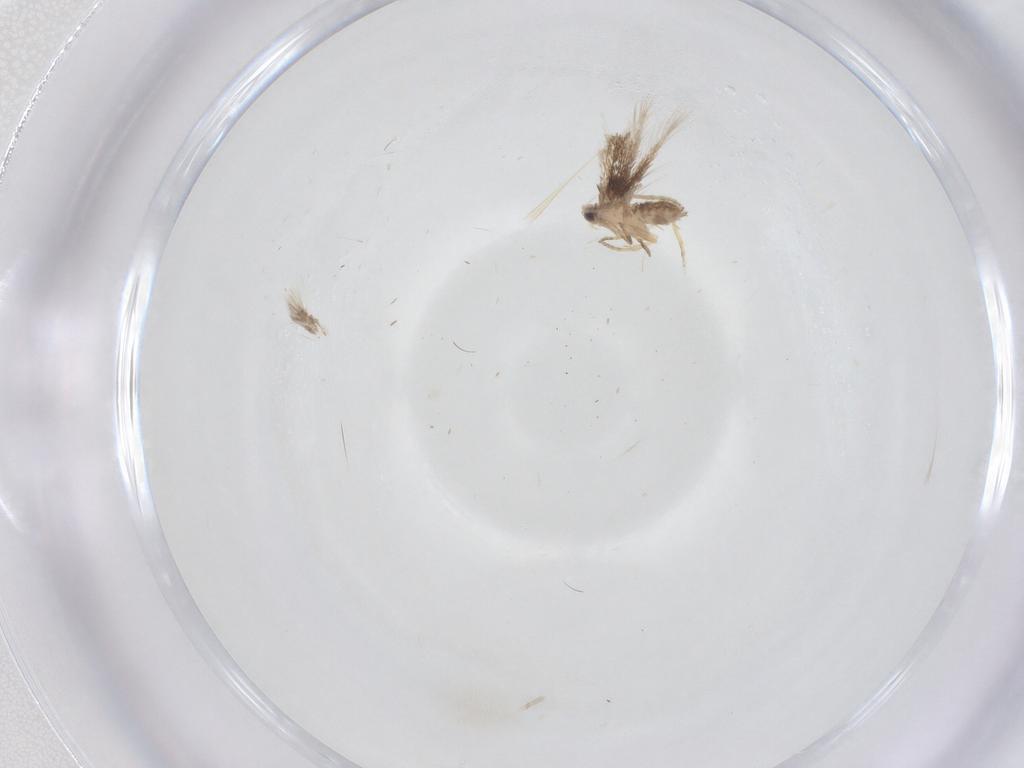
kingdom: Animalia
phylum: Arthropoda
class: Insecta
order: Lepidoptera
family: Nepticulidae
